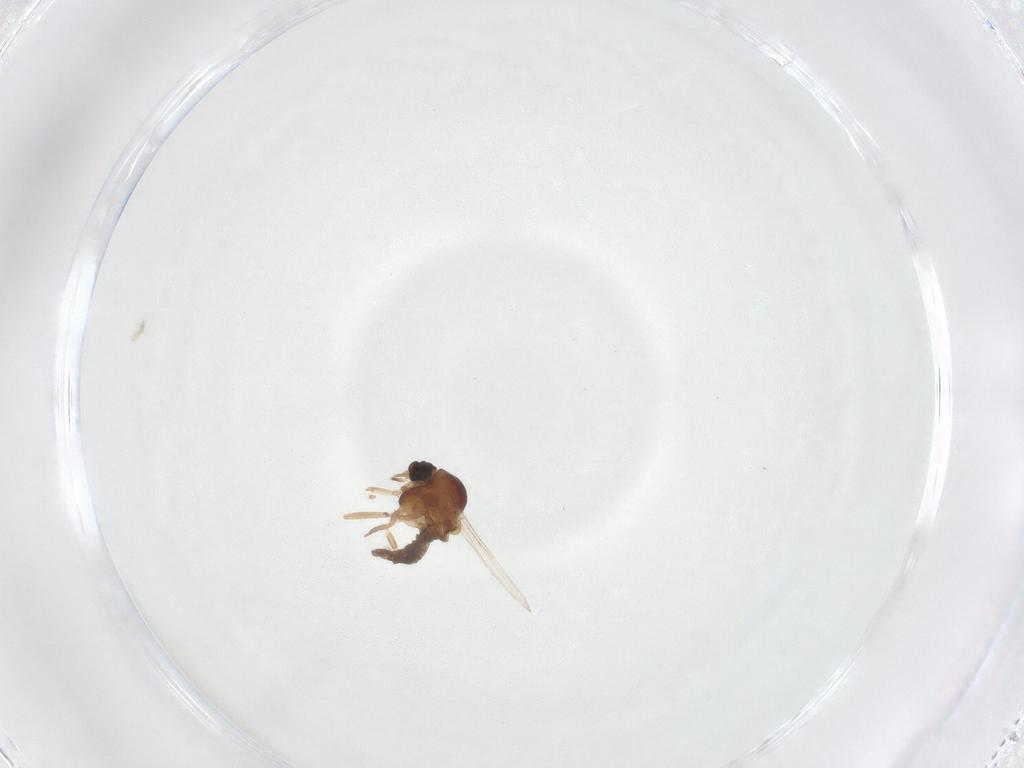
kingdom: Animalia
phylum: Arthropoda
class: Insecta
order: Diptera
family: Ceratopogonidae
